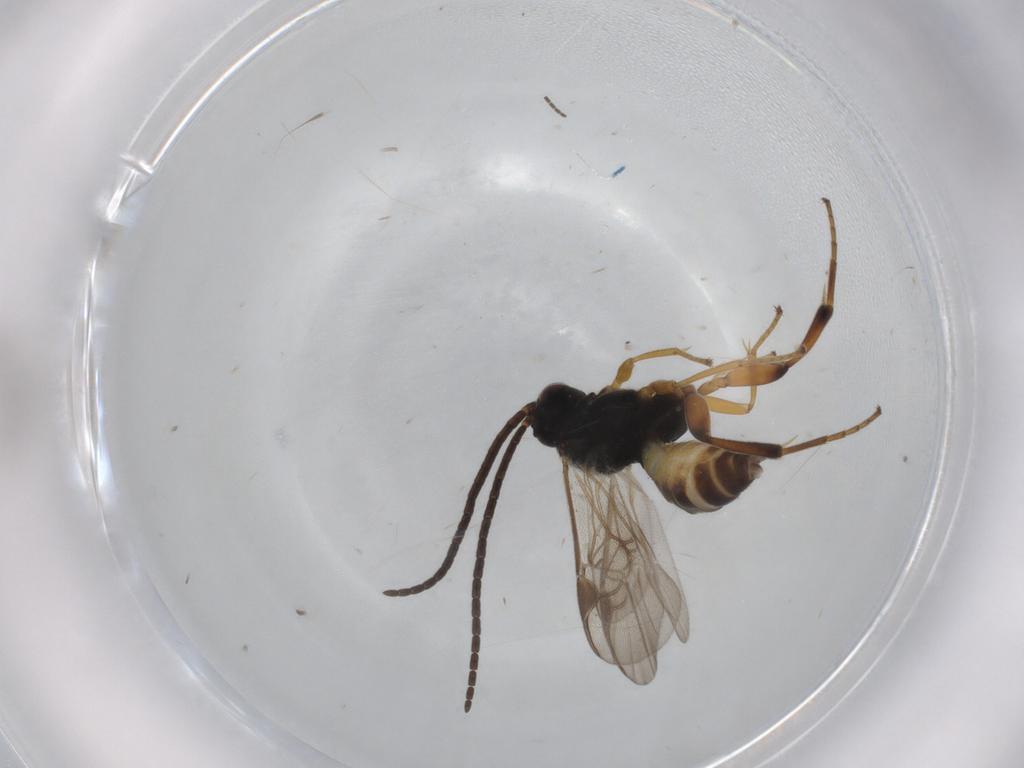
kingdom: Animalia
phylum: Arthropoda
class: Insecta
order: Hymenoptera
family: Braconidae
